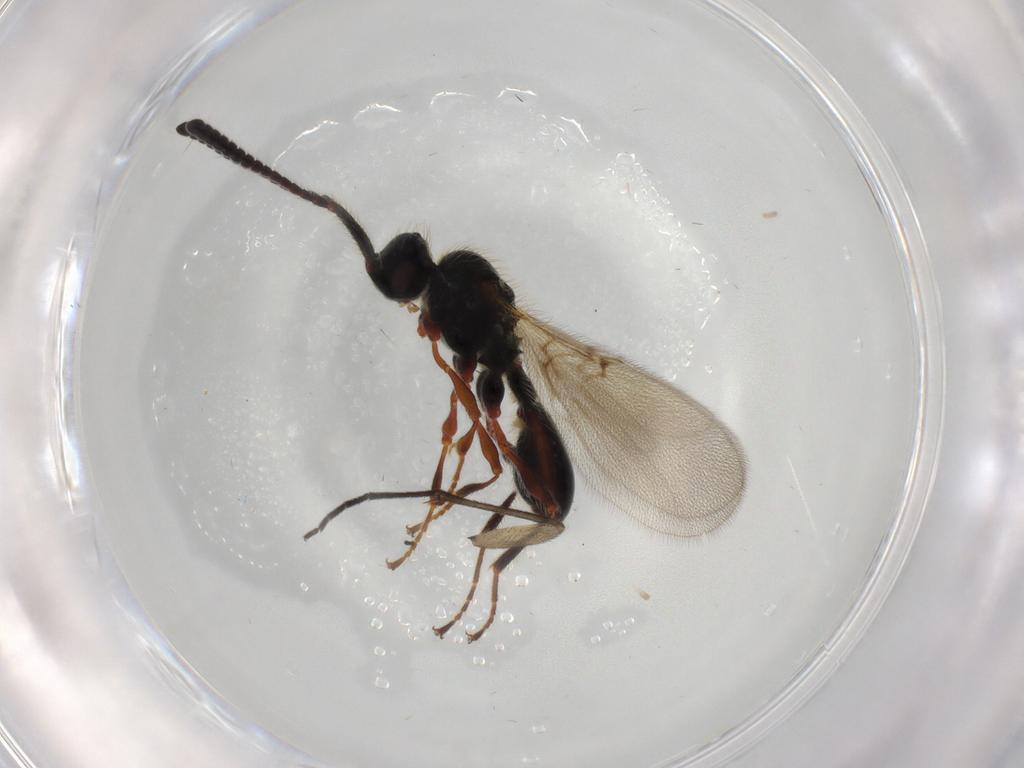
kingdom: Animalia
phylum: Arthropoda
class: Insecta
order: Hymenoptera
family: Diapriidae
